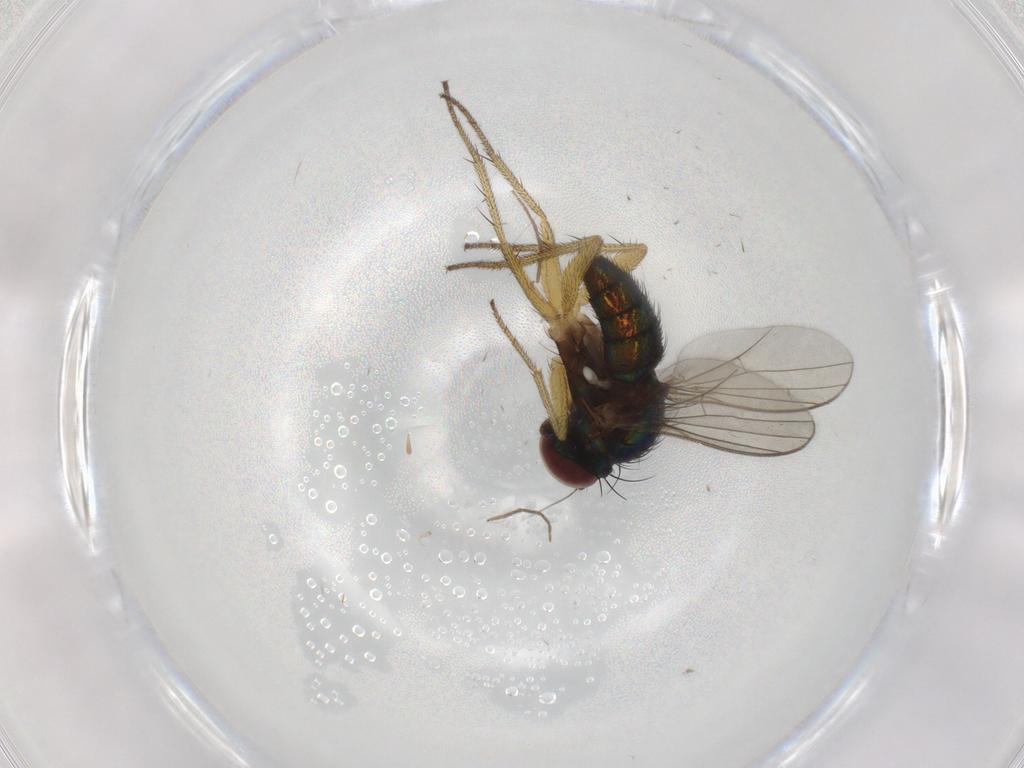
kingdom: Animalia
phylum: Arthropoda
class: Insecta
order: Diptera
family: Dolichopodidae
